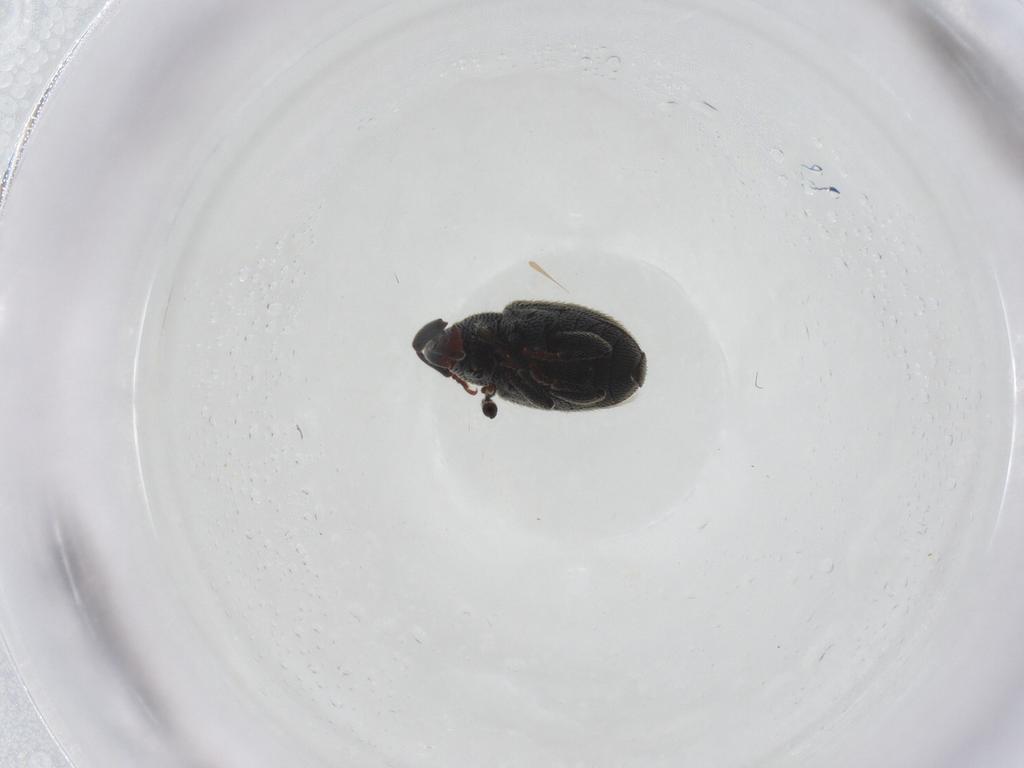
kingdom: Animalia
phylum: Arthropoda
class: Insecta
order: Coleoptera
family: Curculionidae
